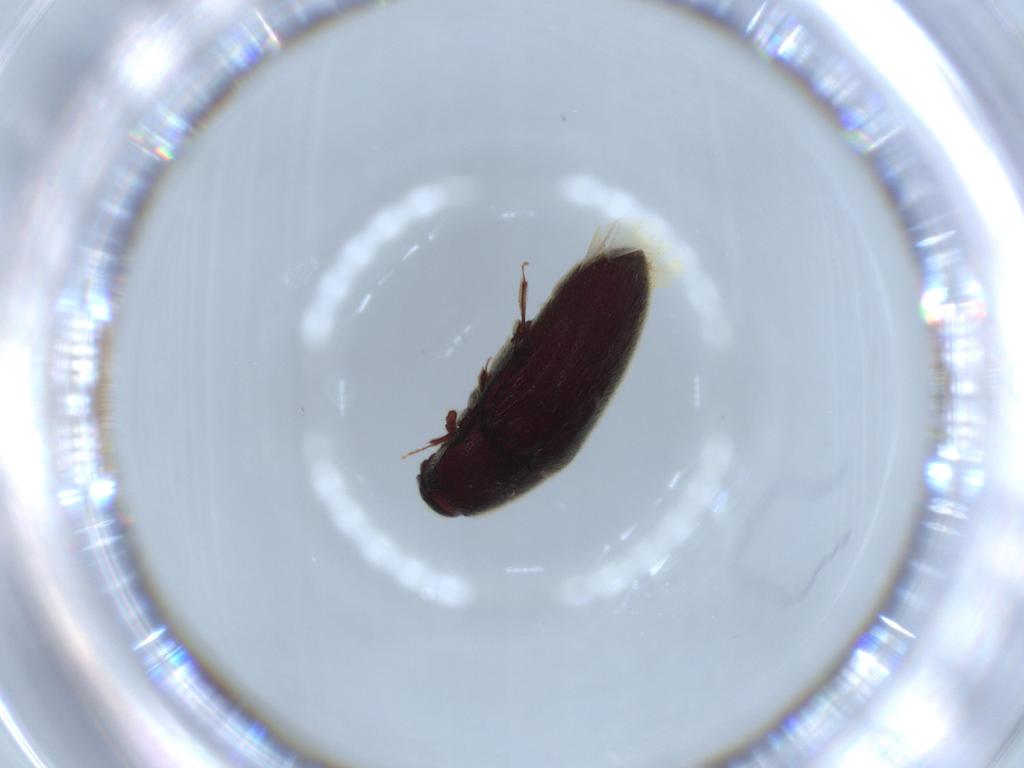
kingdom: Animalia
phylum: Arthropoda
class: Insecta
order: Coleoptera
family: Throscidae
